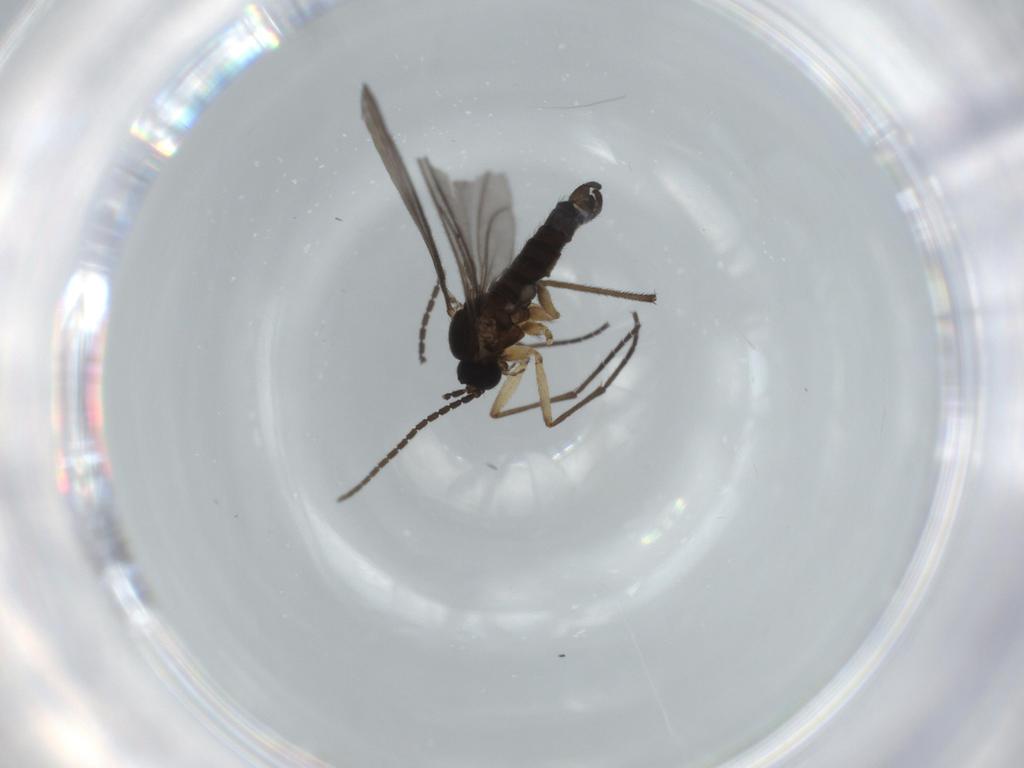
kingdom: Animalia
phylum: Arthropoda
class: Insecta
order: Diptera
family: Sciaridae
